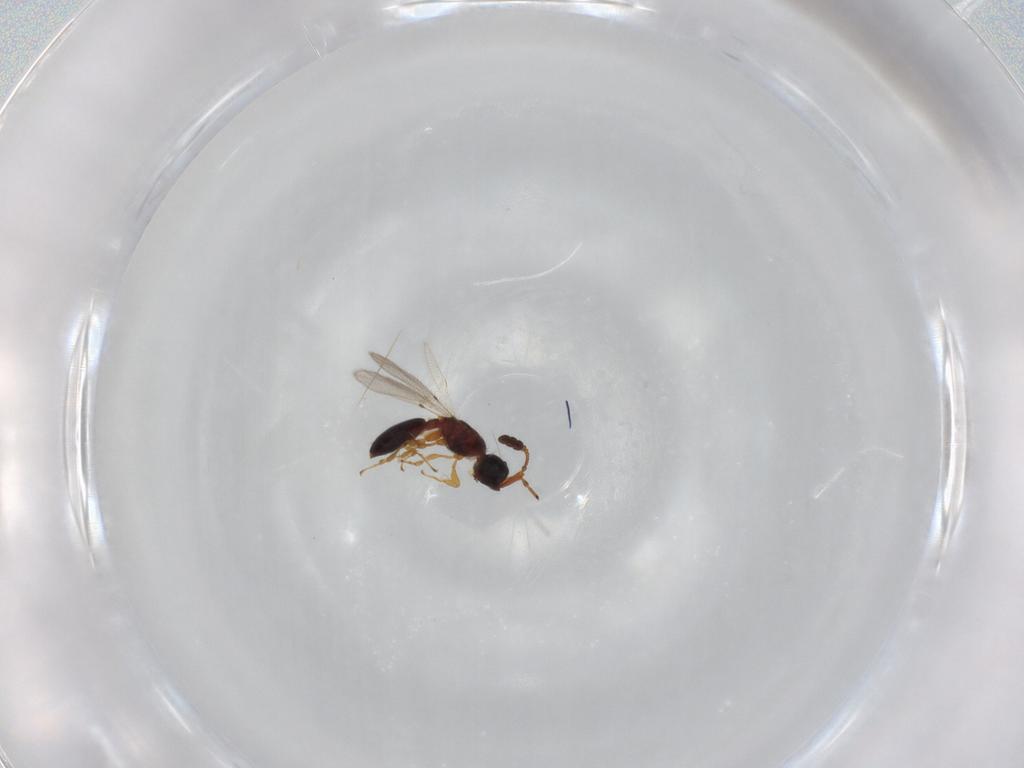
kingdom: Animalia
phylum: Arthropoda
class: Insecta
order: Hymenoptera
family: Diapriidae
